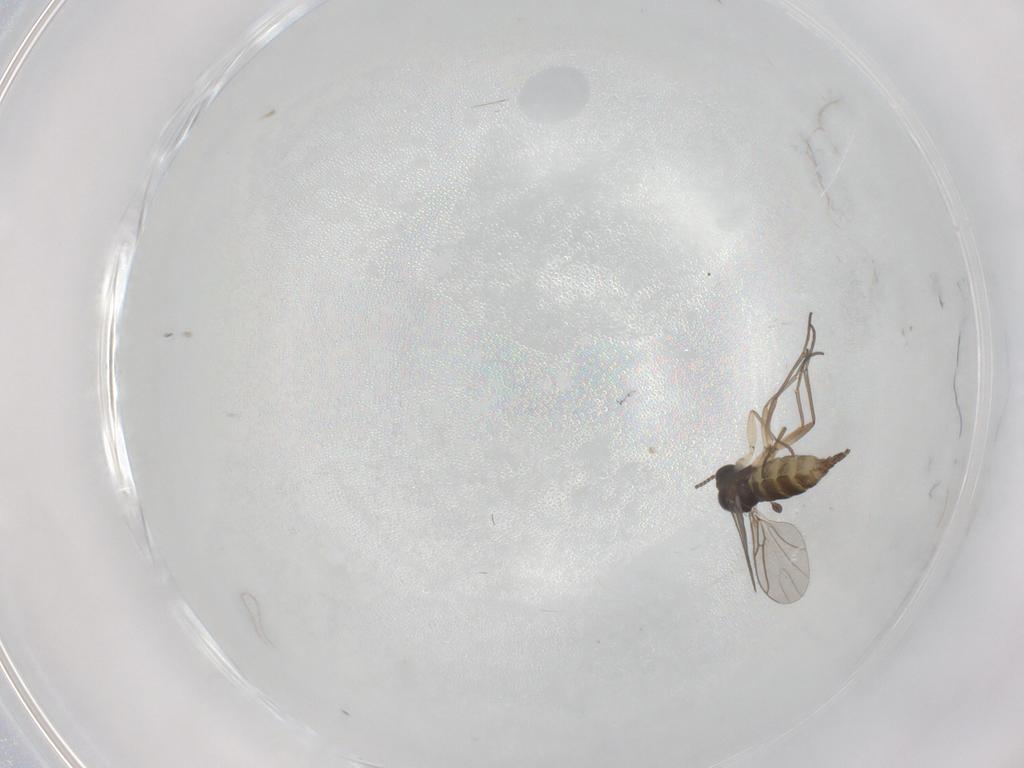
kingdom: Animalia
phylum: Arthropoda
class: Insecta
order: Diptera
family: Sciaridae
